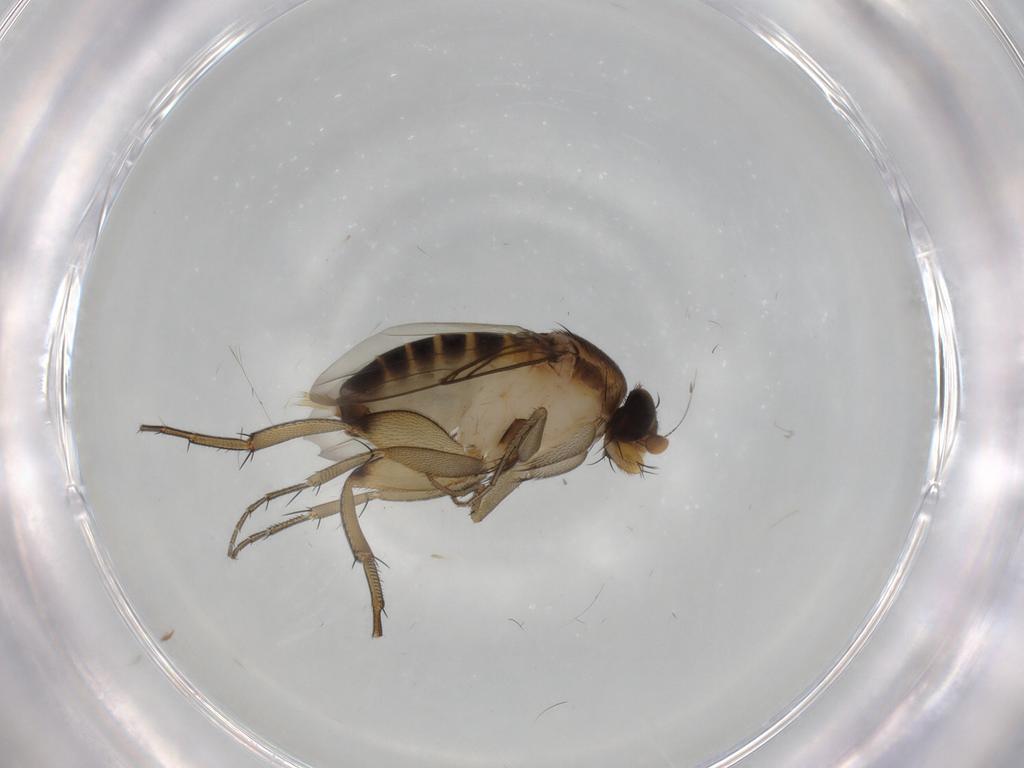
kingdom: Animalia
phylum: Arthropoda
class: Insecta
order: Diptera
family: Phoridae
